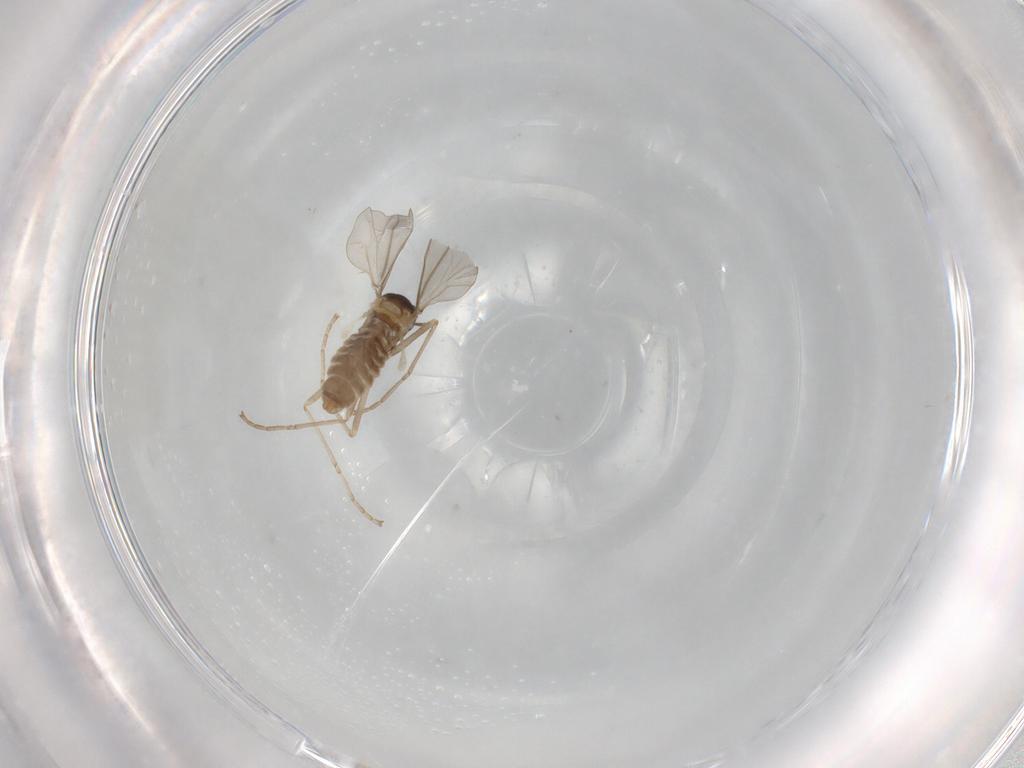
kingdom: Animalia
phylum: Arthropoda
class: Insecta
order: Diptera
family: Cecidomyiidae
